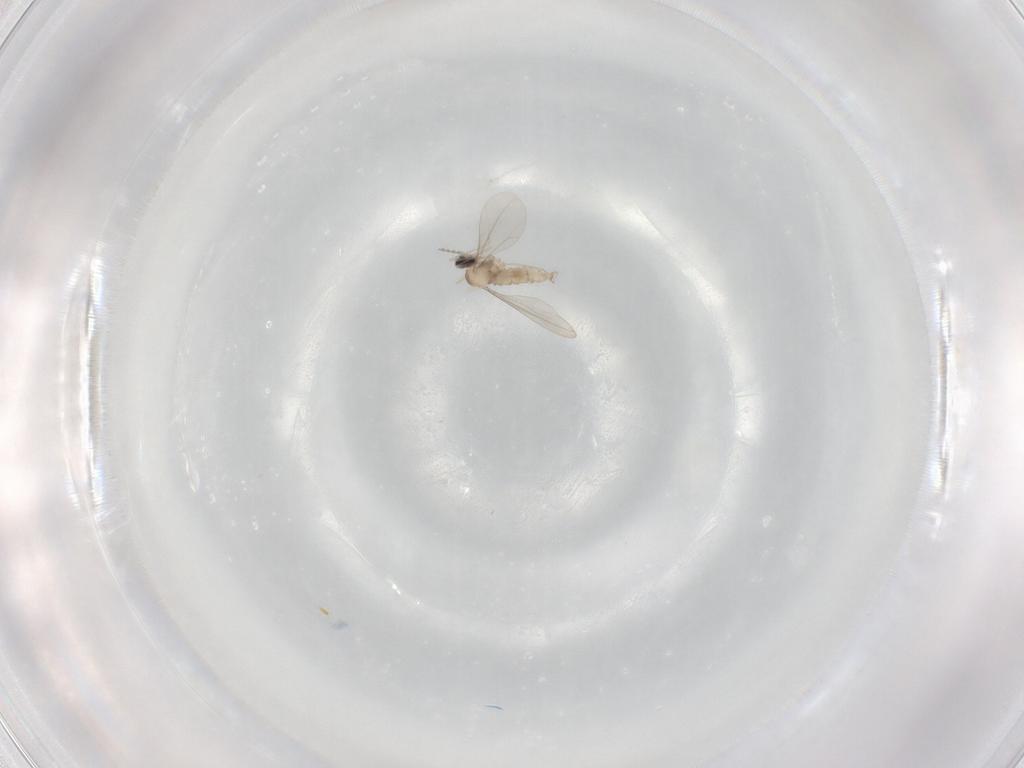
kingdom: Animalia
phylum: Arthropoda
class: Insecta
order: Diptera
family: Cecidomyiidae
